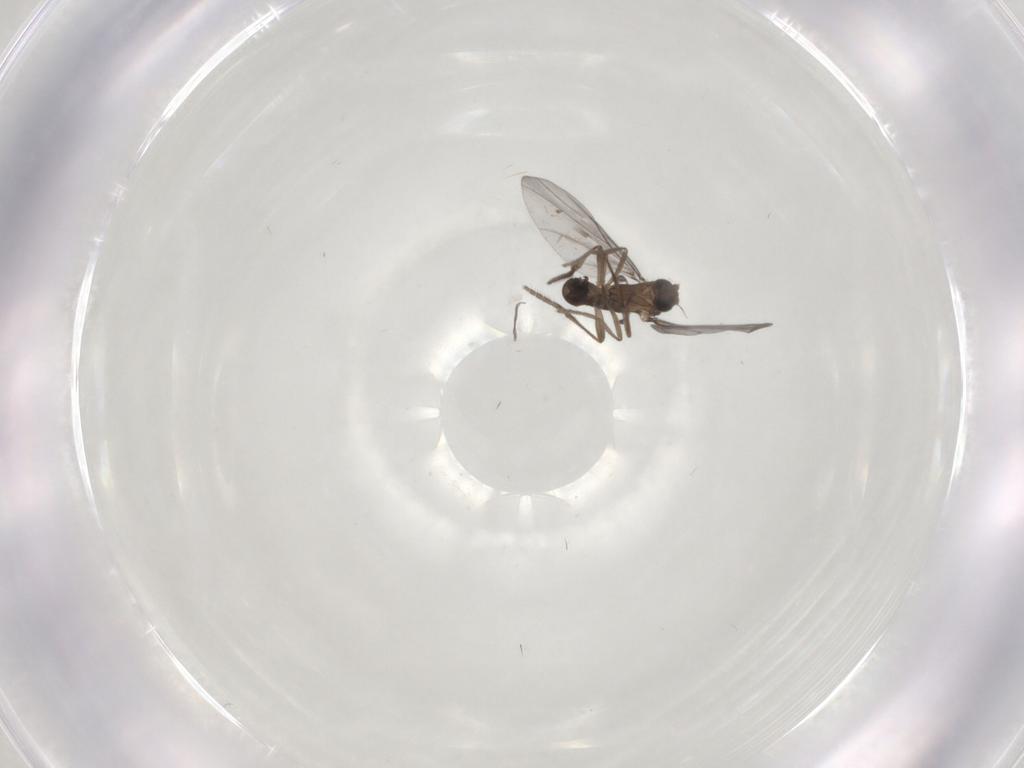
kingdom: Animalia
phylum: Arthropoda
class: Insecta
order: Diptera
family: Phoridae
